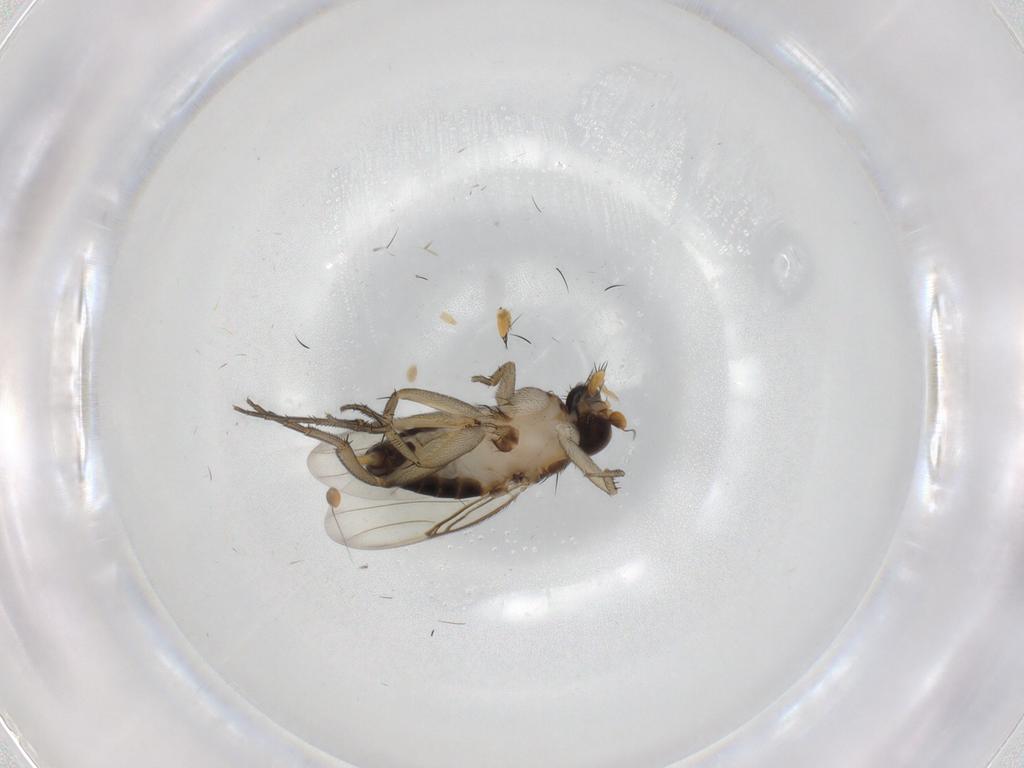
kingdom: Animalia
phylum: Arthropoda
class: Insecta
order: Diptera
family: Phoridae
